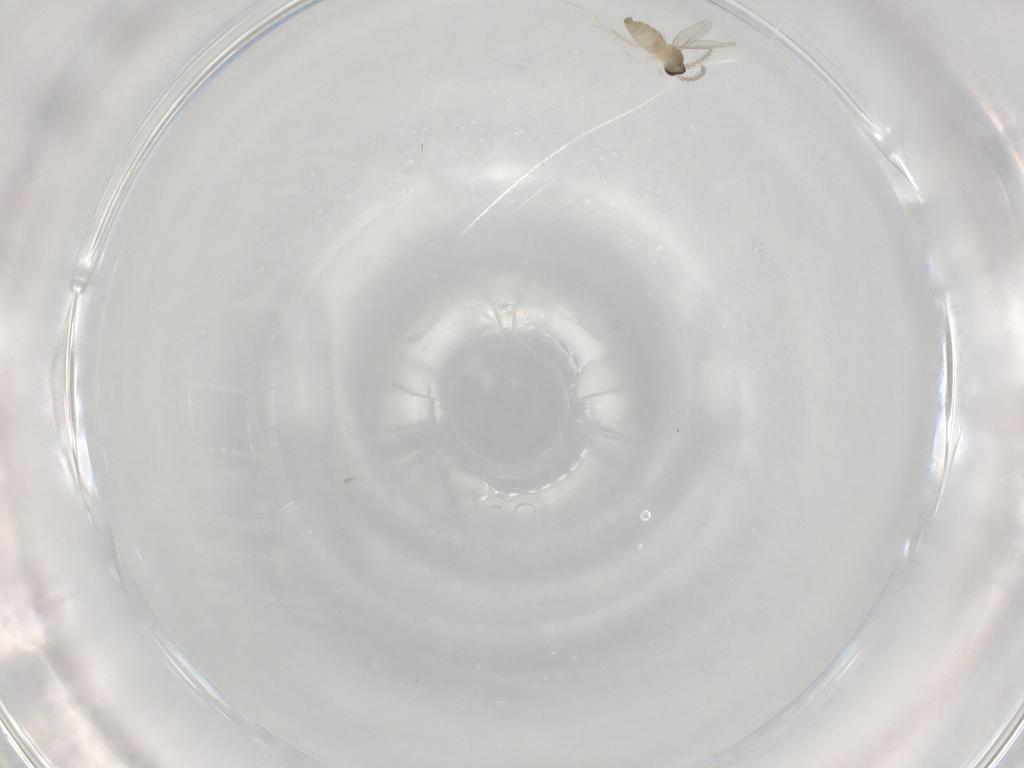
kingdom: Animalia
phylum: Arthropoda
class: Insecta
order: Diptera
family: Cecidomyiidae
